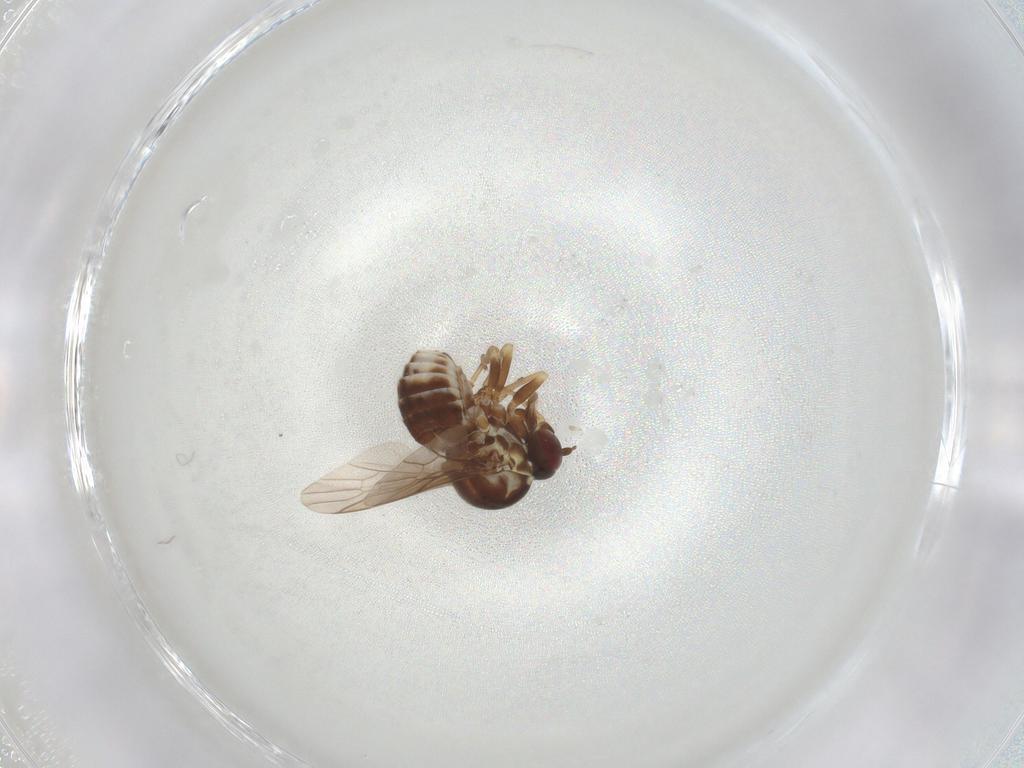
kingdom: Animalia
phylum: Arthropoda
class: Insecta
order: Diptera
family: Bombyliidae
